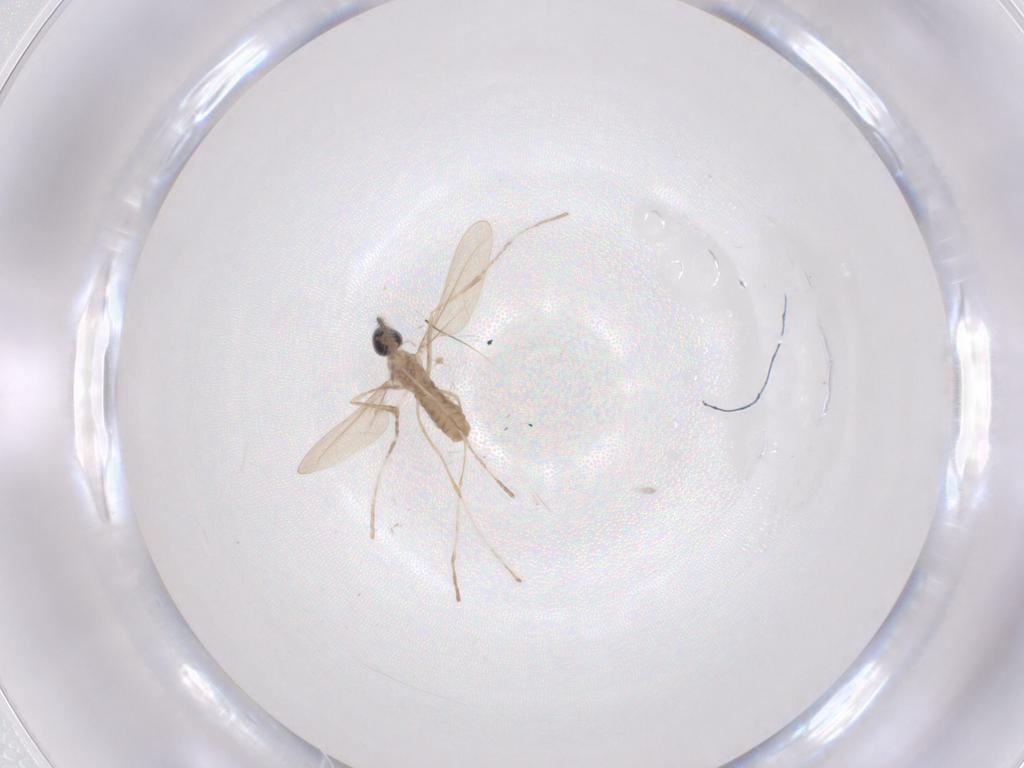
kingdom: Animalia
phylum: Arthropoda
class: Insecta
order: Diptera
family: Cecidomyiidae
